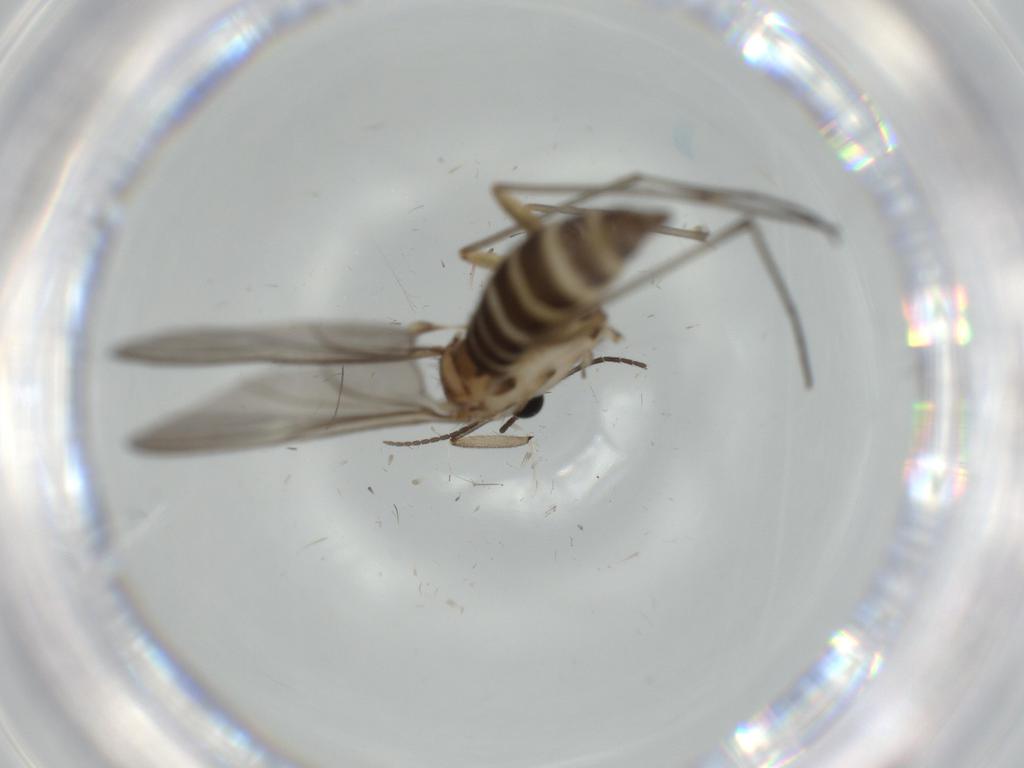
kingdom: Animalia
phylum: Arthropoda
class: Insecta
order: Diptera
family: Sciaridae
